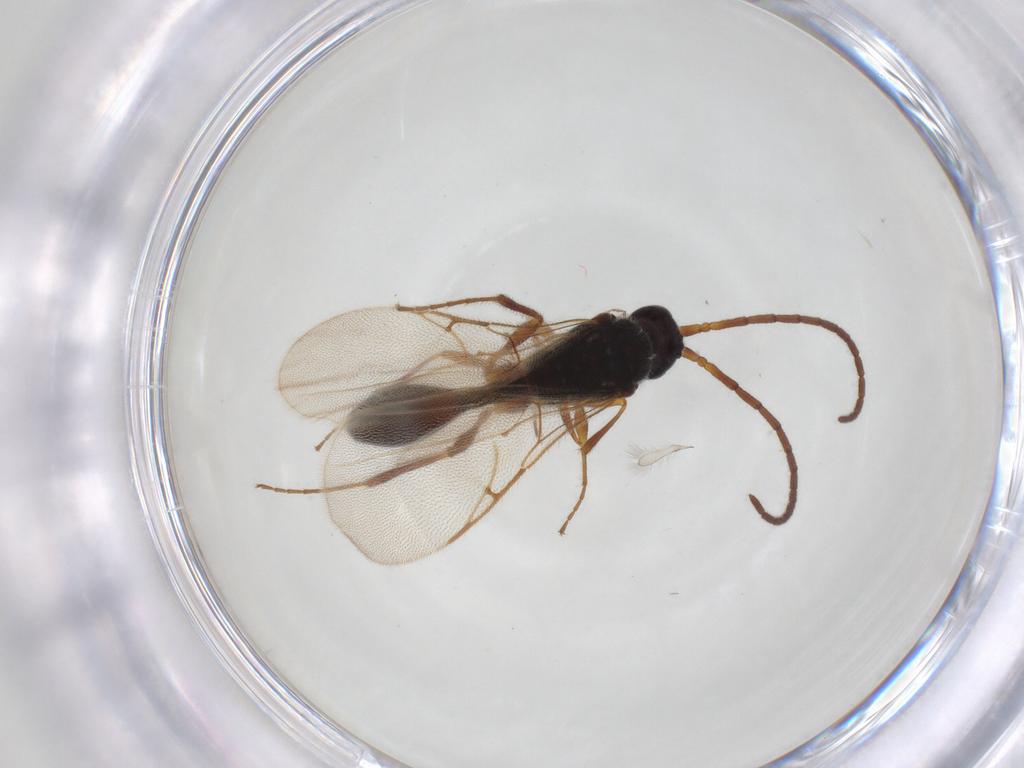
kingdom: Animalia
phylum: Arthropoda
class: Insecta
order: Hymenoptera
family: Diapriidae
